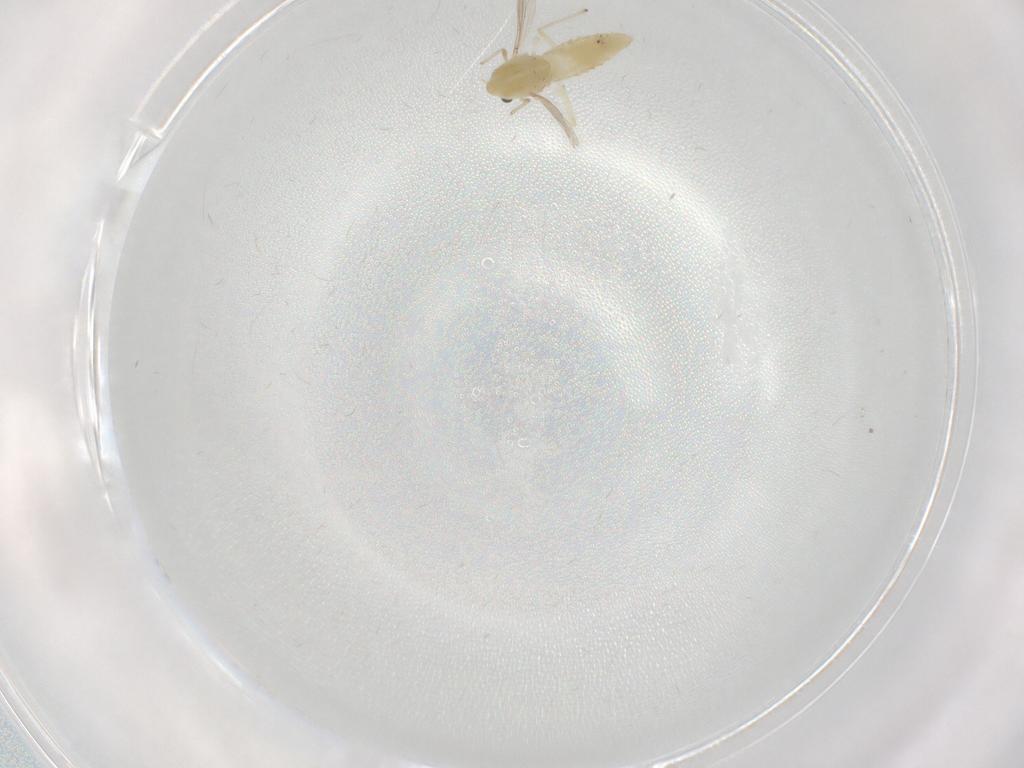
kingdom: Animalia
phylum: Arthropoda
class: Insecta
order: Diptera
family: Chironomidae
